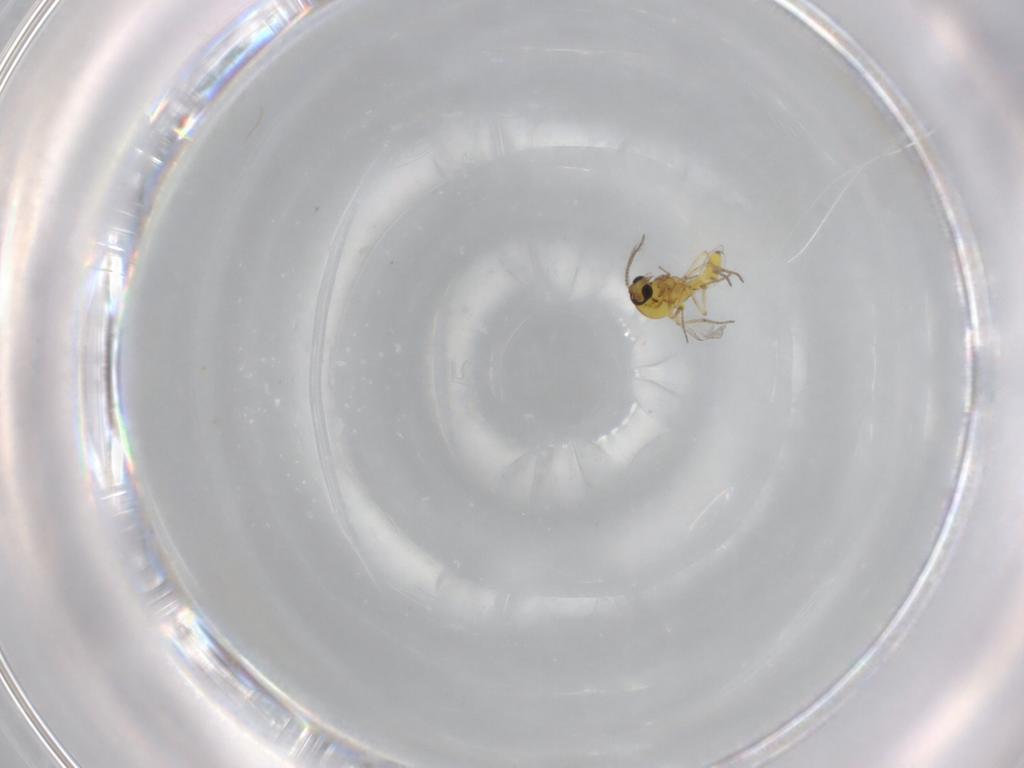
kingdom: Animalia
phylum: Arthropoda
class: Insecta
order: Diptera
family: Ceratopogonidae
